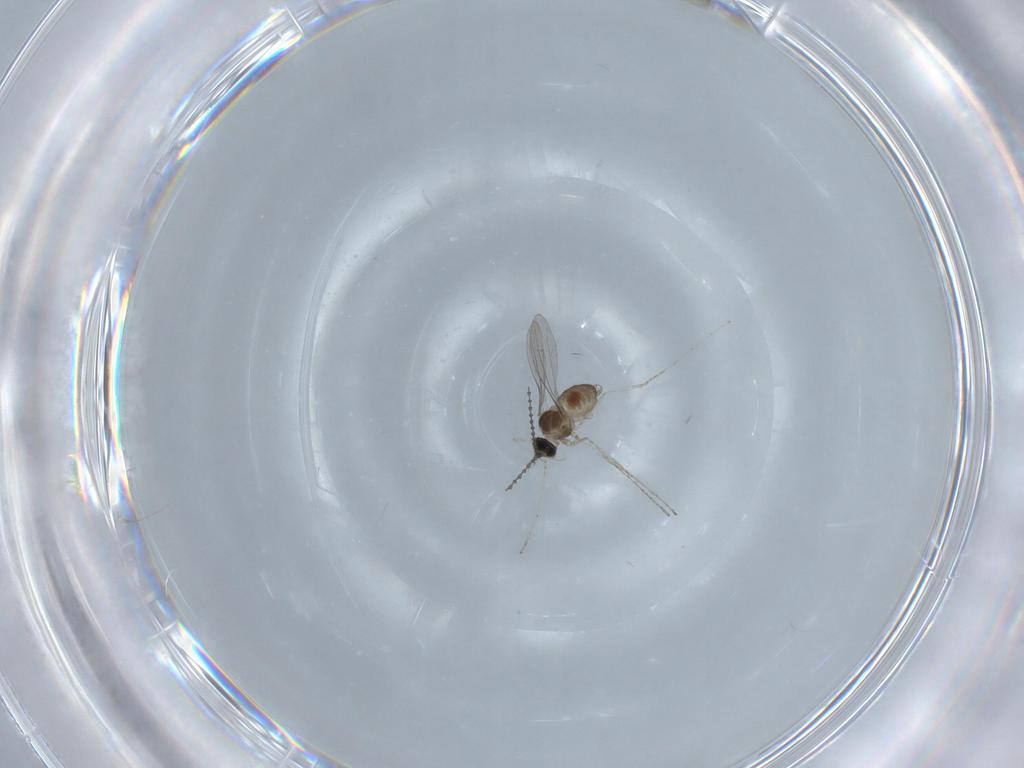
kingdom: Animalia
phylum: Arthropoda
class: Insecta
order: Diptera
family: Cecidomyiidae
